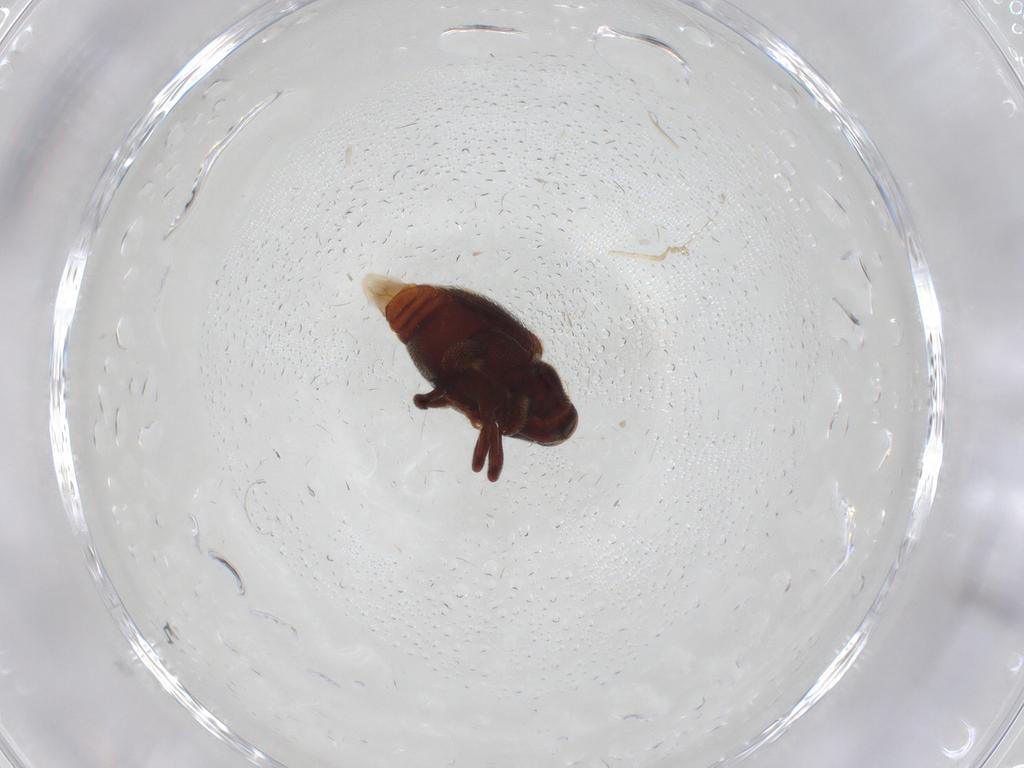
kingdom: Animalia
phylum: Arthropoda
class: Insecta
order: Coleoptera
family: Curculionidae
